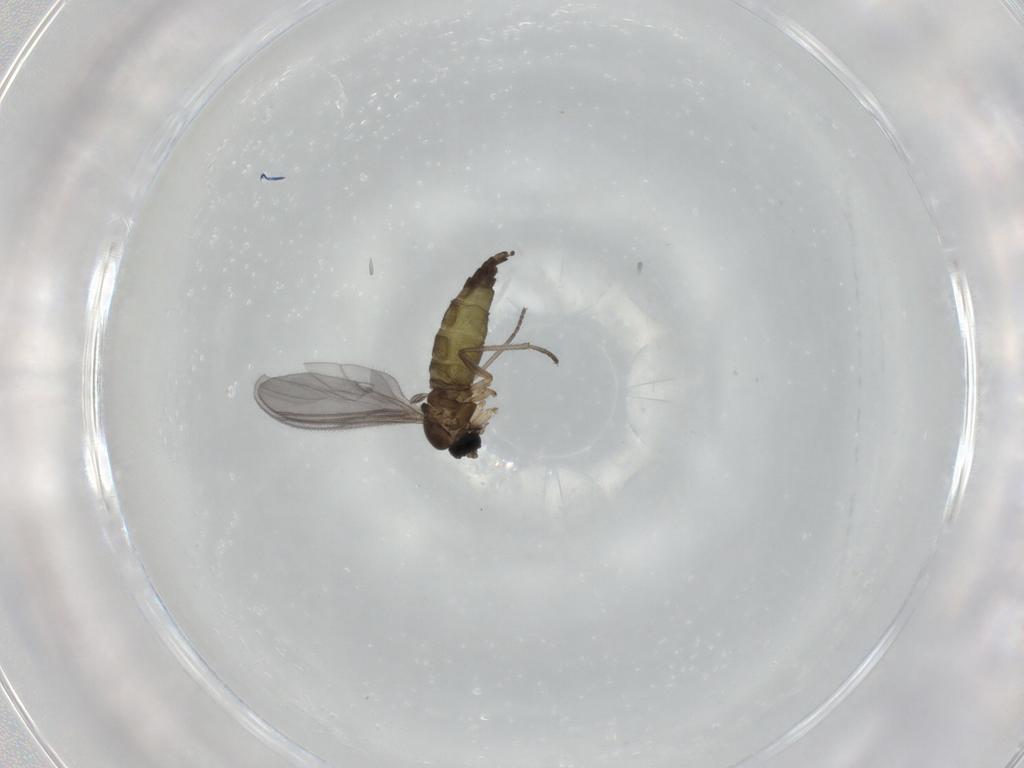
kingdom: Animalia
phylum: Arthropoda
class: Insecta
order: Diptera
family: Sciaridae
